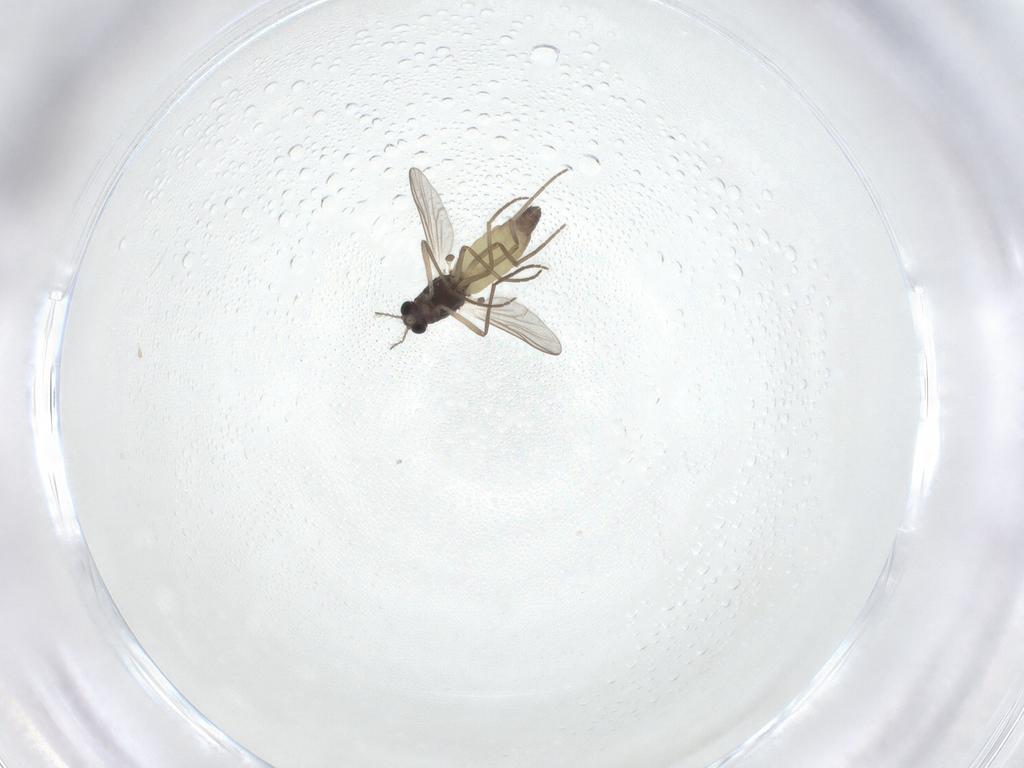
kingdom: Animalia
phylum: Arthropoda
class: Insecta
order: Diptera
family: Chironomidae
